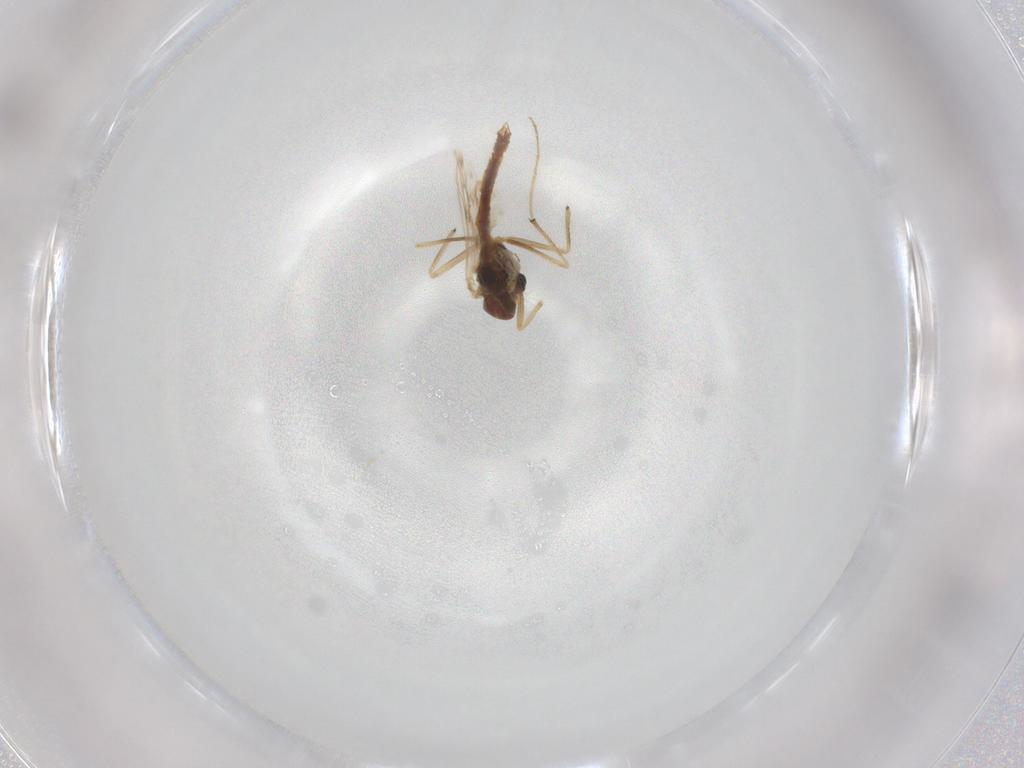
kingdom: Animalia
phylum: Arthropoda
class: Insecta
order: Diptera
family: Chironomidae
